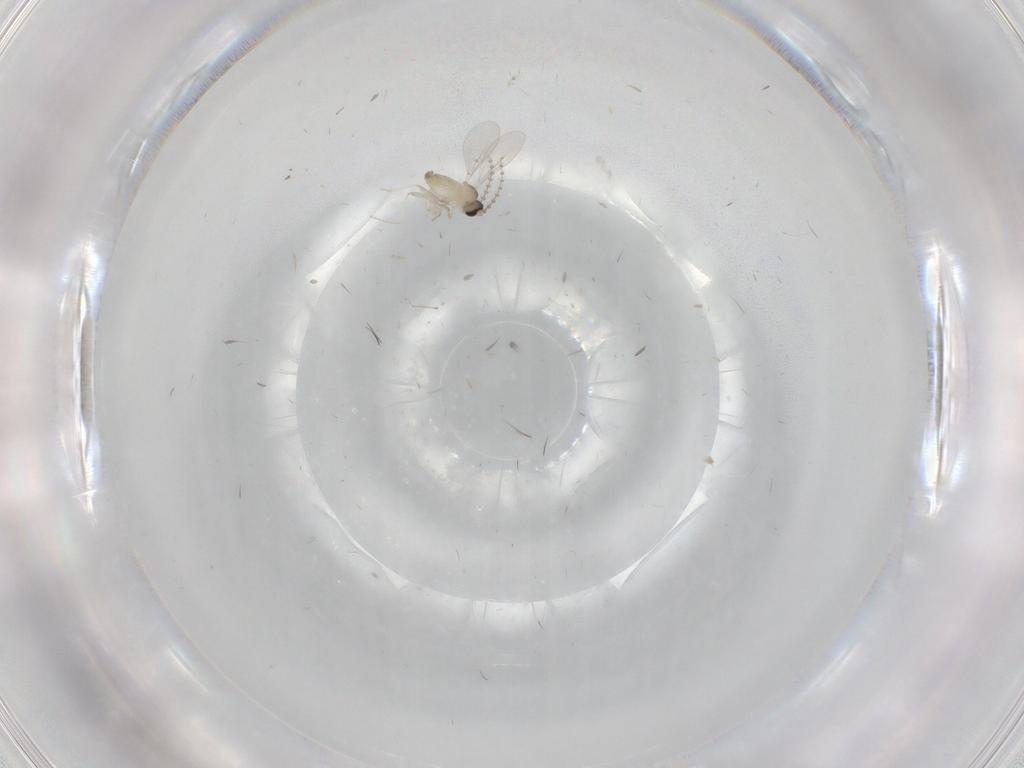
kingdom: Animalia
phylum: Arthropoda
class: Insecta
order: Diptera
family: Cecidomyiidae
